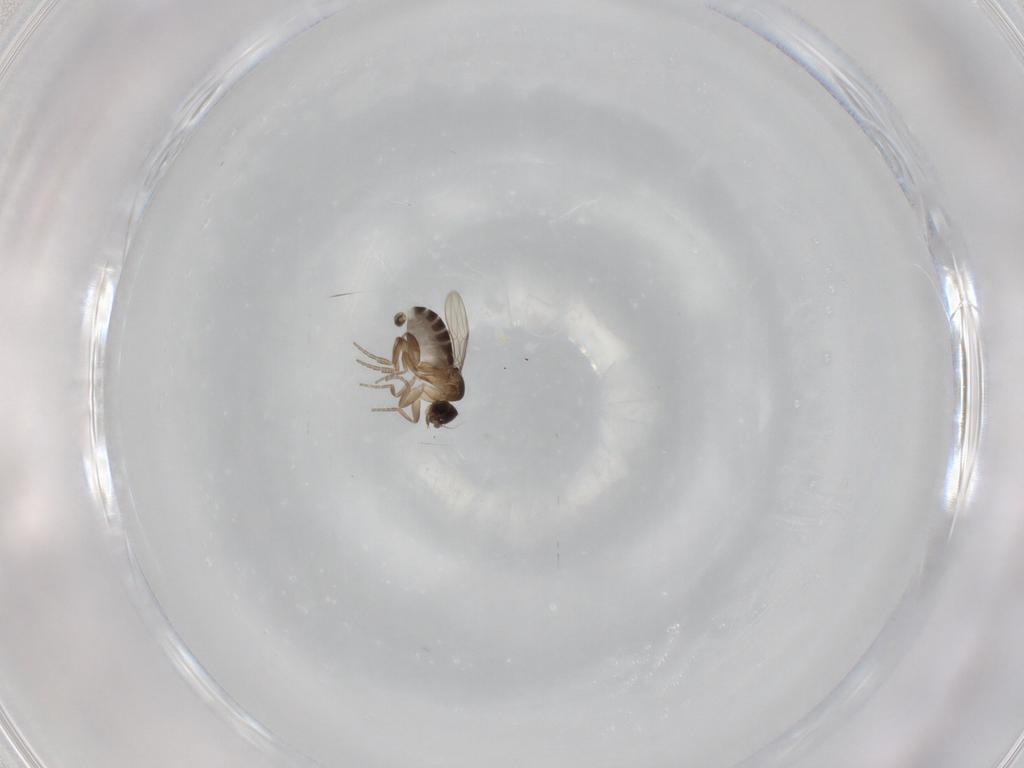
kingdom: Animalia
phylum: Arthropoda
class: Insecta
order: Diptera
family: Phoridae
